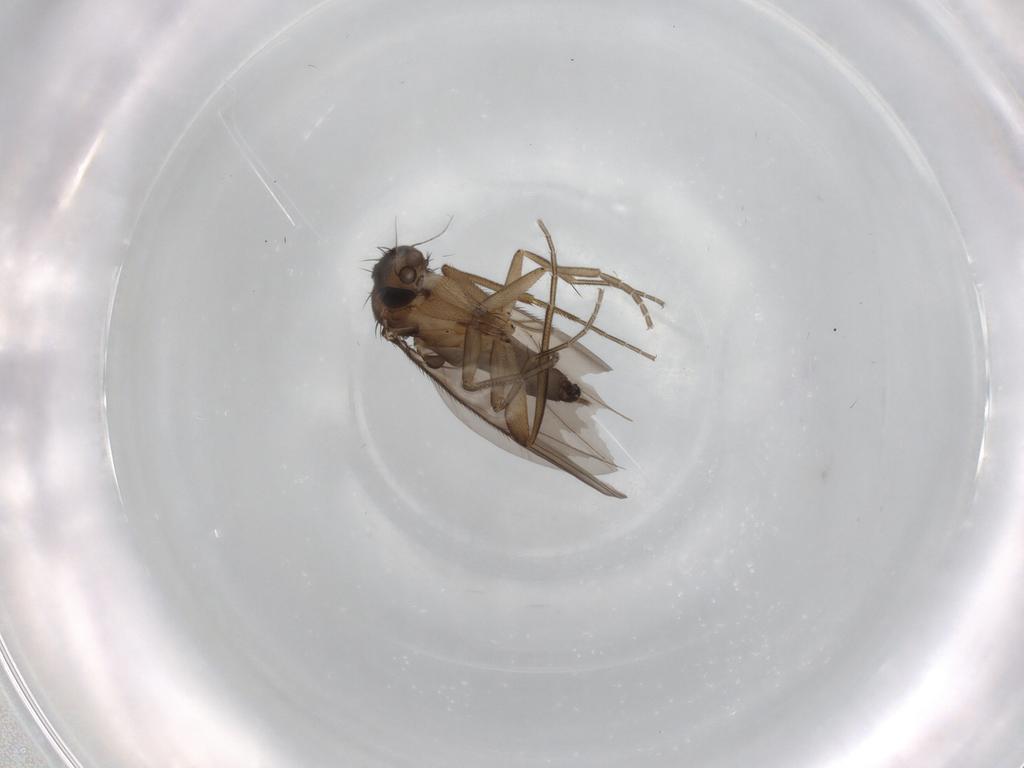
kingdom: Animalia
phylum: Arthropoda
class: Insecta
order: Diptera
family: Phoridae
